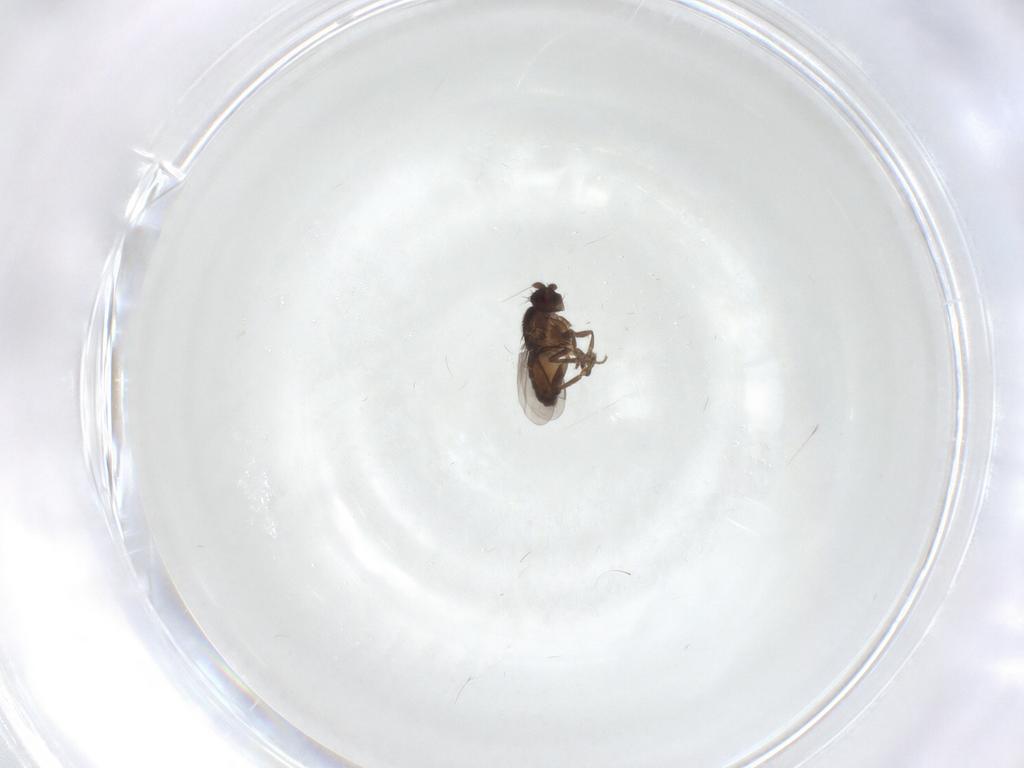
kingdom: Animalia
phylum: Arthropoda
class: Insecta
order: Diptera
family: Sphaeroceridae
